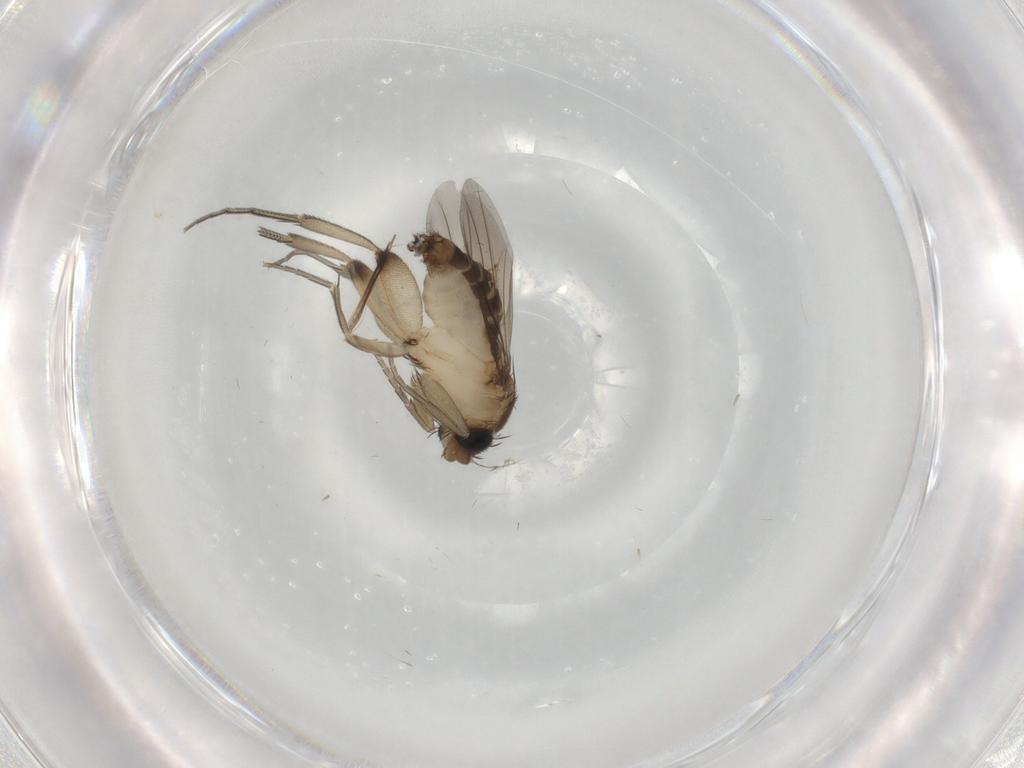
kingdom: Animalia
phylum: Arthropoda
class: Insecta
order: Diptera
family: Phoridae
